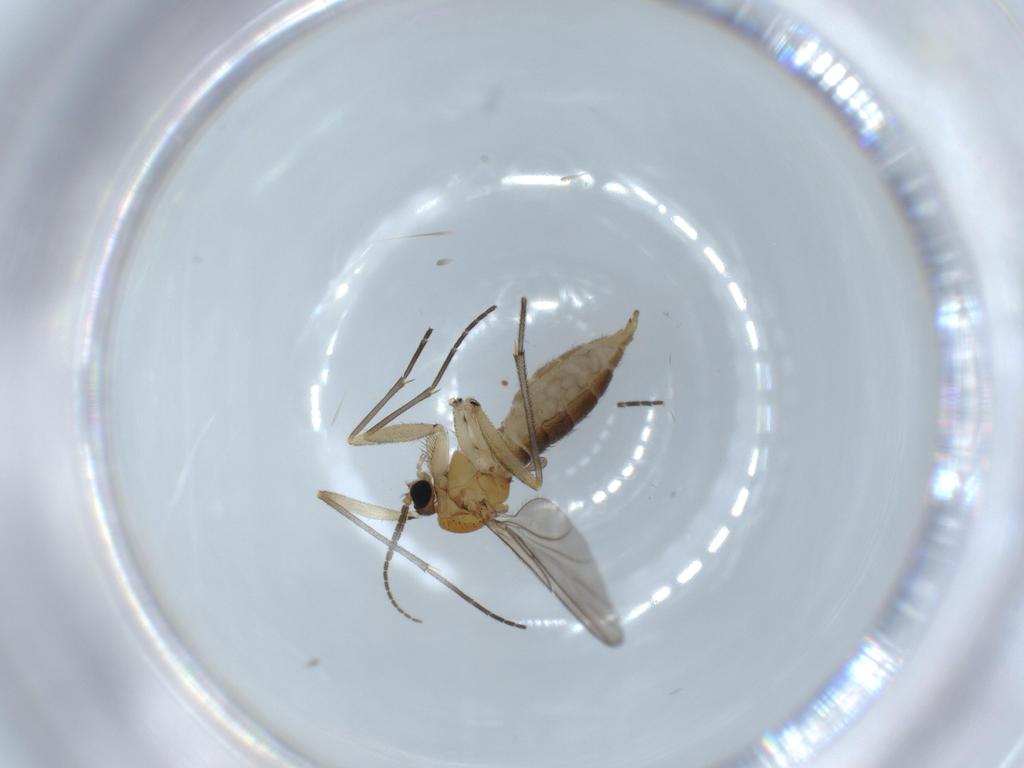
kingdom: Animalia
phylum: Arthropoda
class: Insecta
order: Diptera
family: Sciaridae
